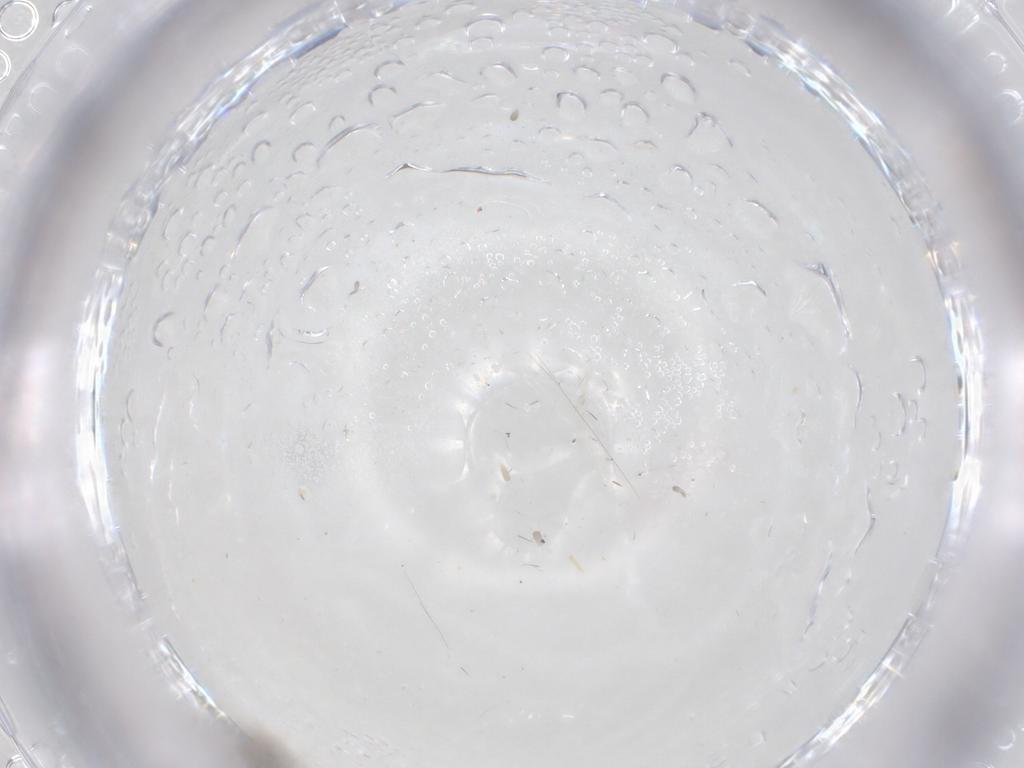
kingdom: Animalia
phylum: Arthropoda
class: Insecta
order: Diptera
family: Cecidomyiidae
